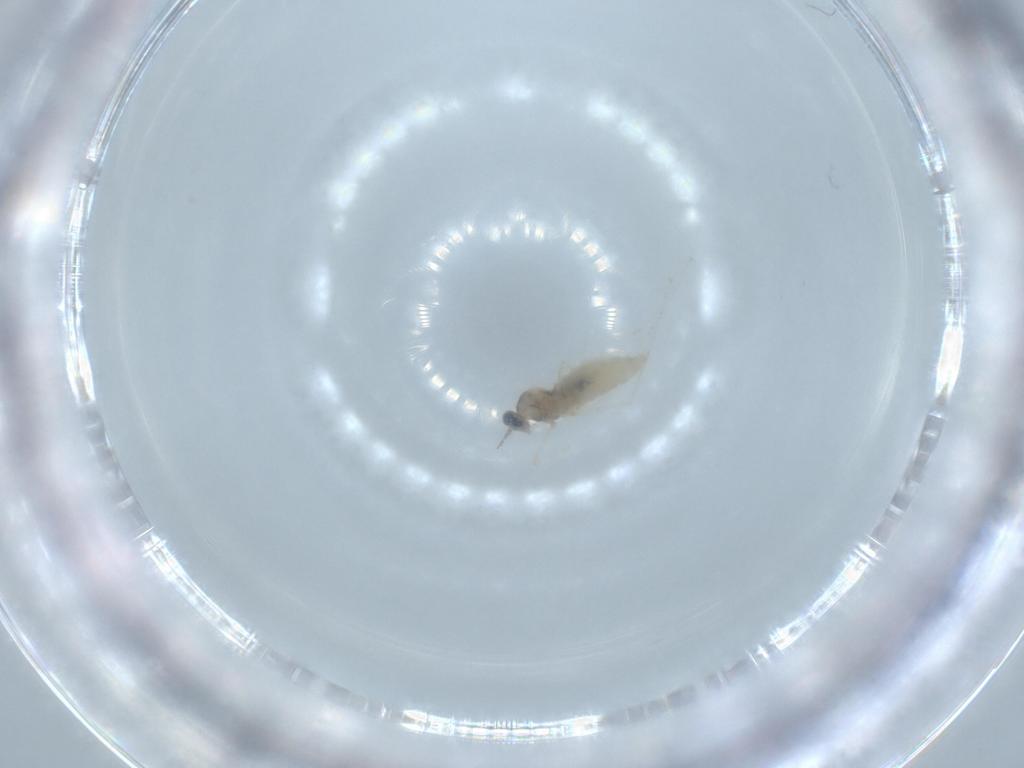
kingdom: Animalia
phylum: Arthropoda
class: Insecta
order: Diptera
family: Chironomidae
